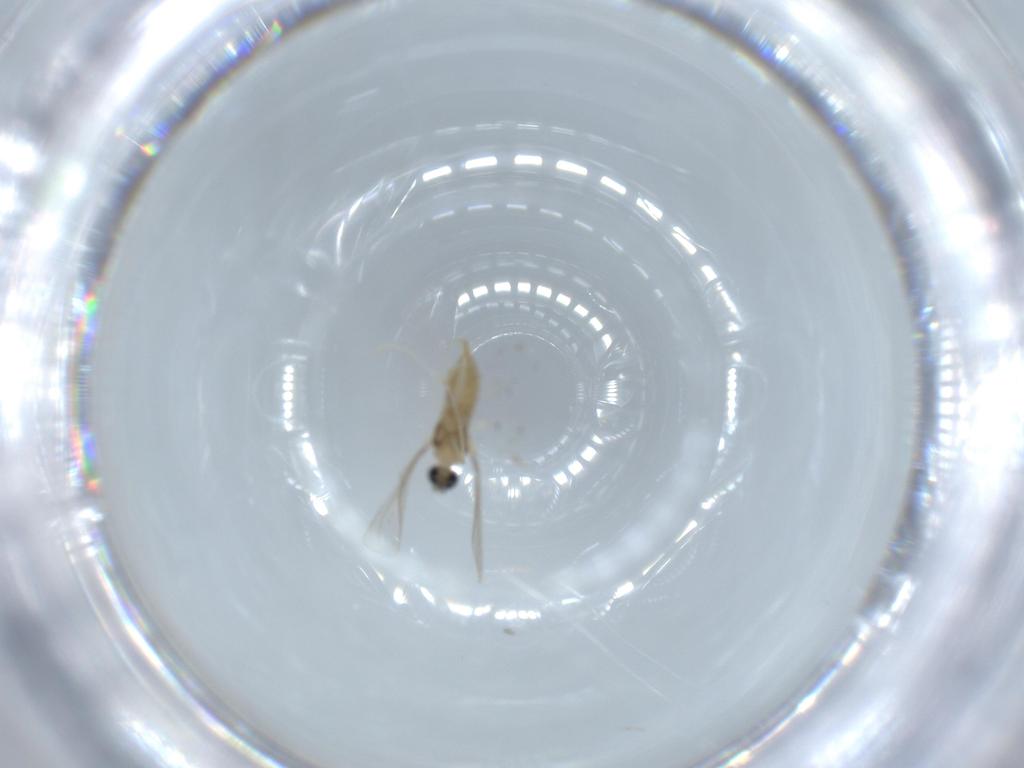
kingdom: Animalia
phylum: Arthropoda
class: Insecta
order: Diptera
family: Cecidomyiidae
